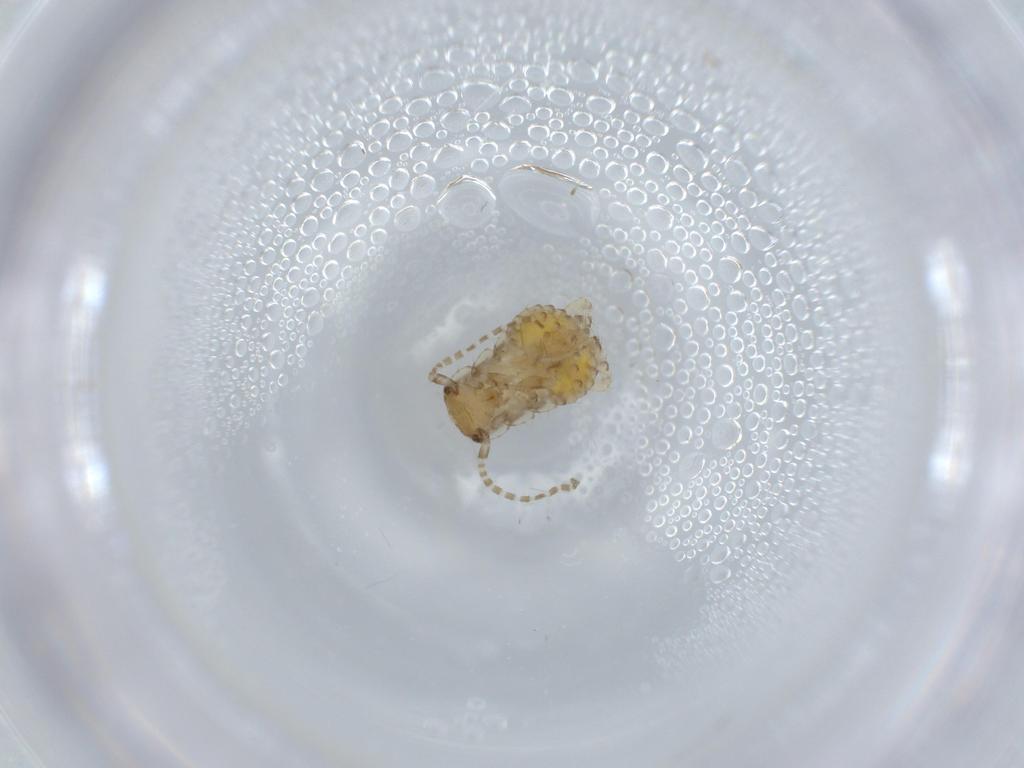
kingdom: Animalia
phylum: Arthropoda
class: Insecta
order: Blattodea
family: Ectobiidae
